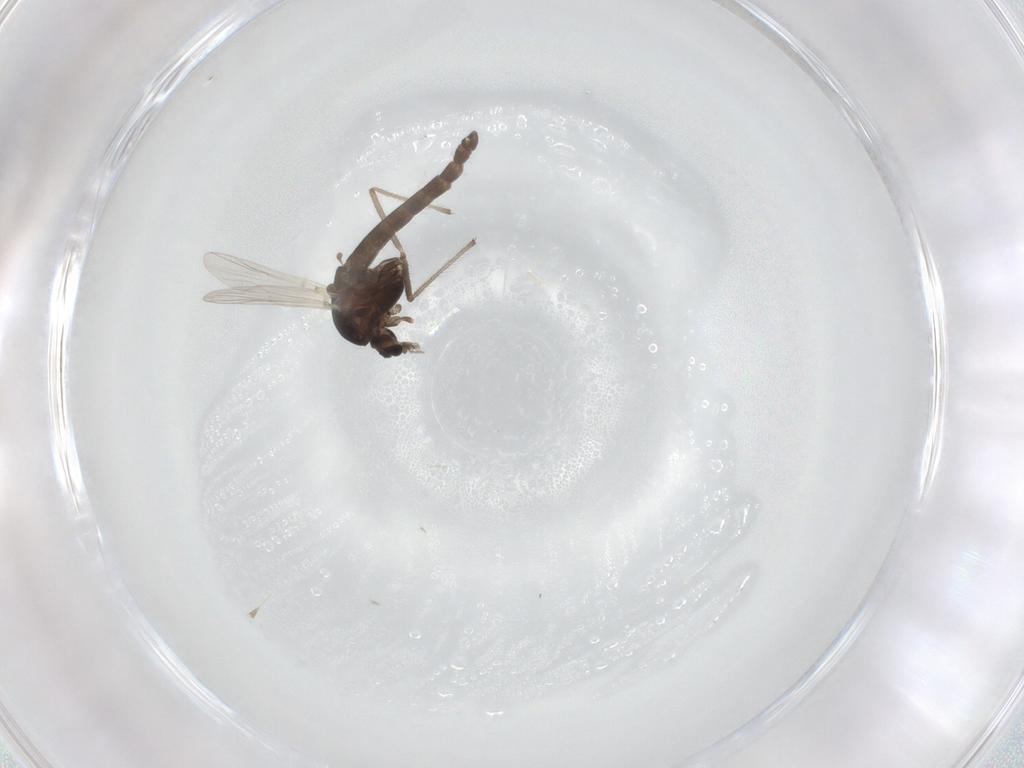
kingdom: Animalia
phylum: Arthropoda
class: Insecta
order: Diptera
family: Chironomidae
